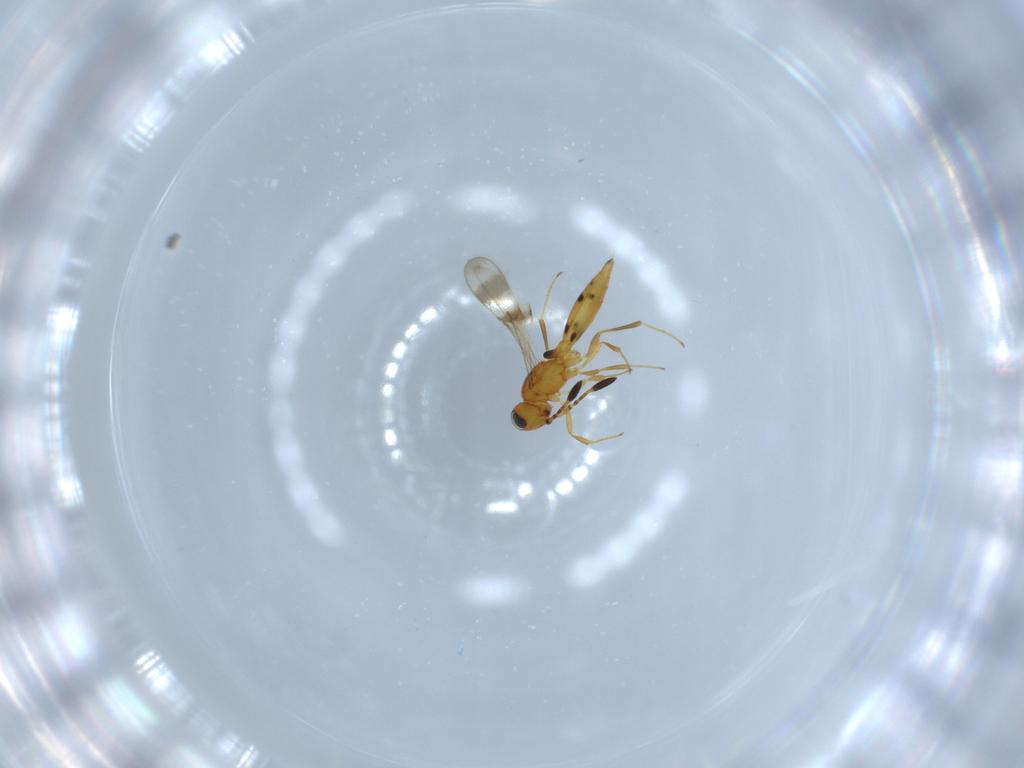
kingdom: Animalia
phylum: Arthropoda
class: Insecta
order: Hymenoptera
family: Scelionidae
